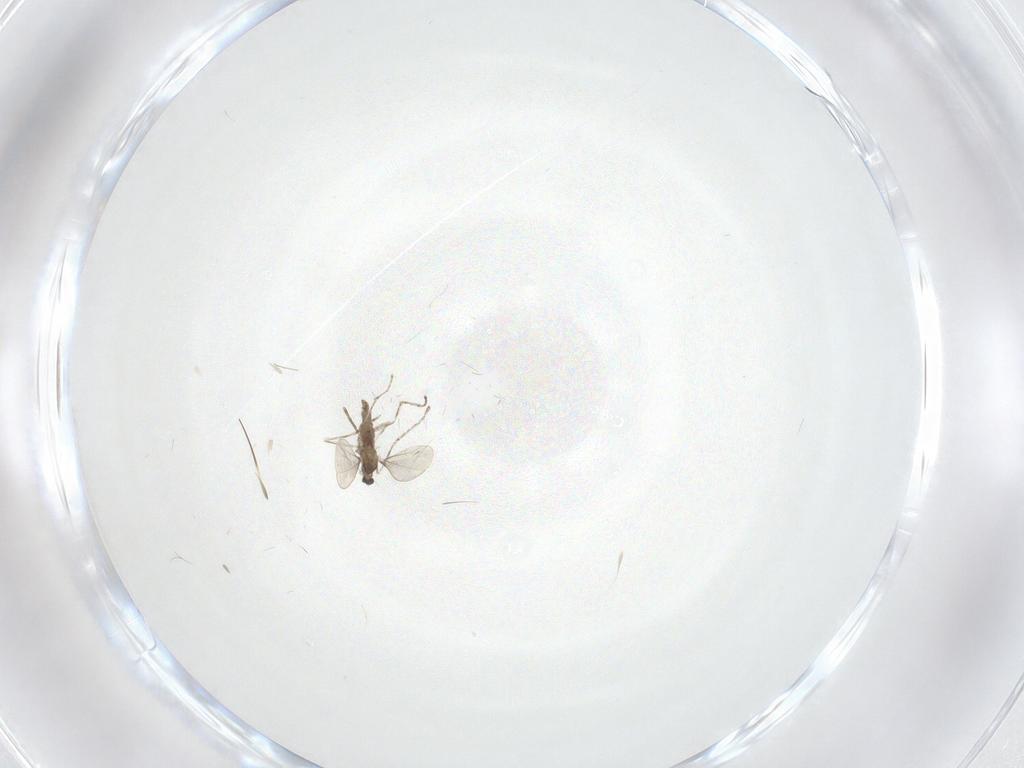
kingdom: Animalia
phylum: Arthropoda
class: Insecta
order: Diptera
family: Cecidomyiidae
